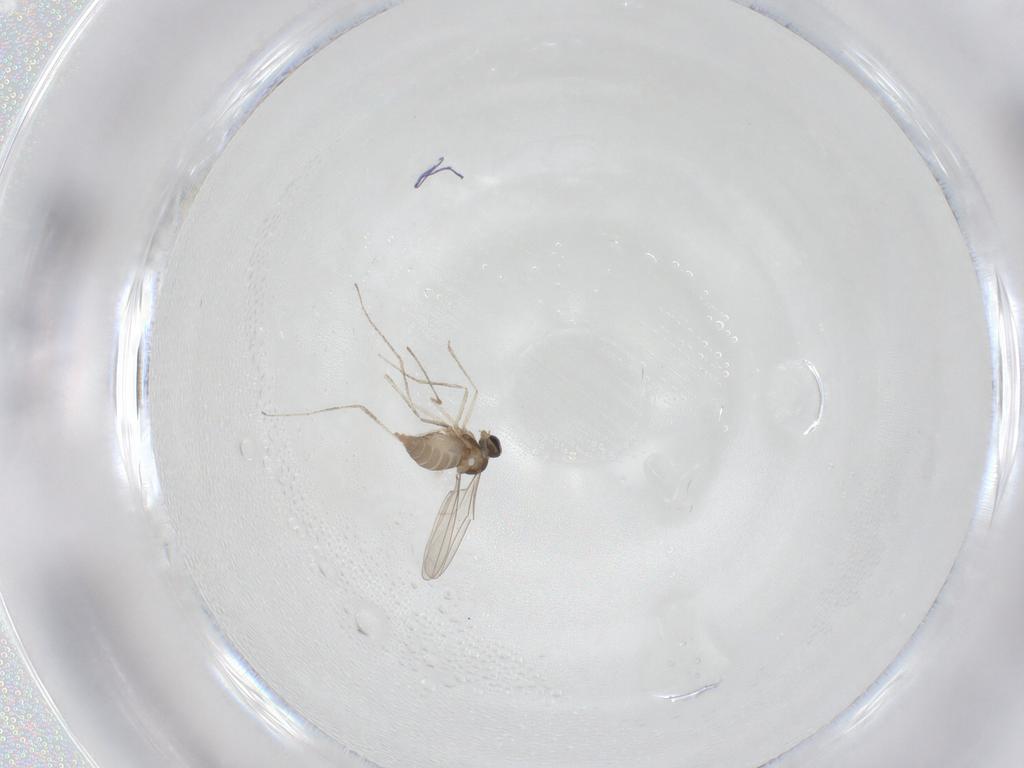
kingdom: Animalia
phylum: Arthropoda
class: Insecta
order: Diptera
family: Cecidomyiidae
